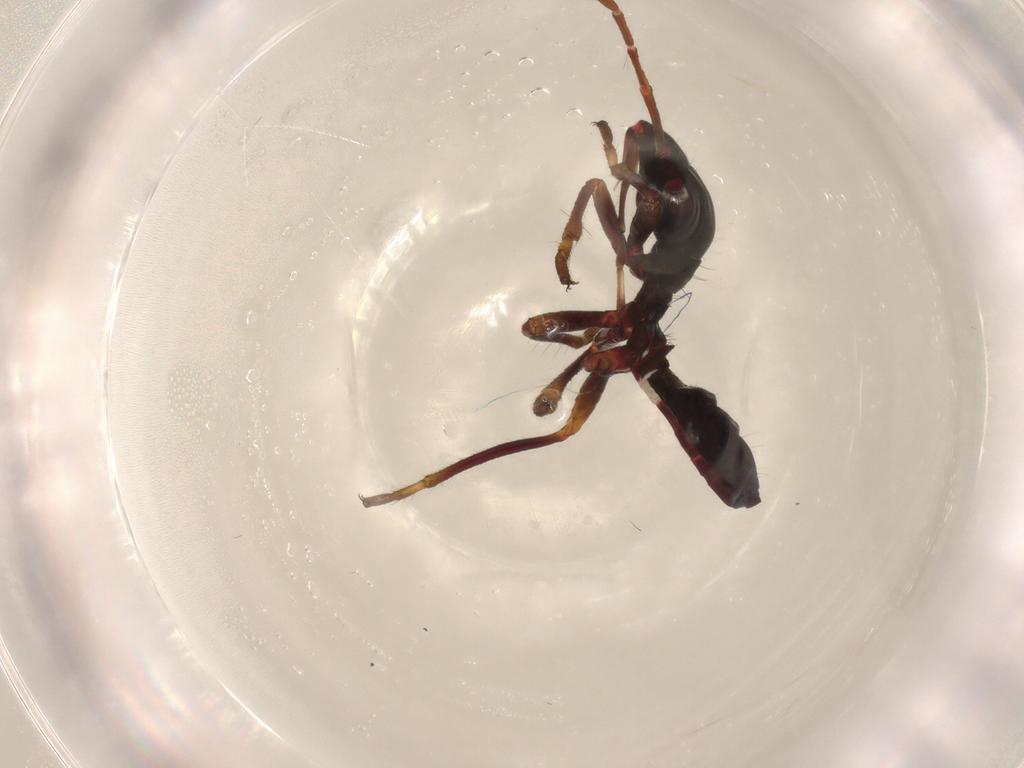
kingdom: Animalia
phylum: Arthropoda
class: Insecta
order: Hemiptera
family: Alydidae
